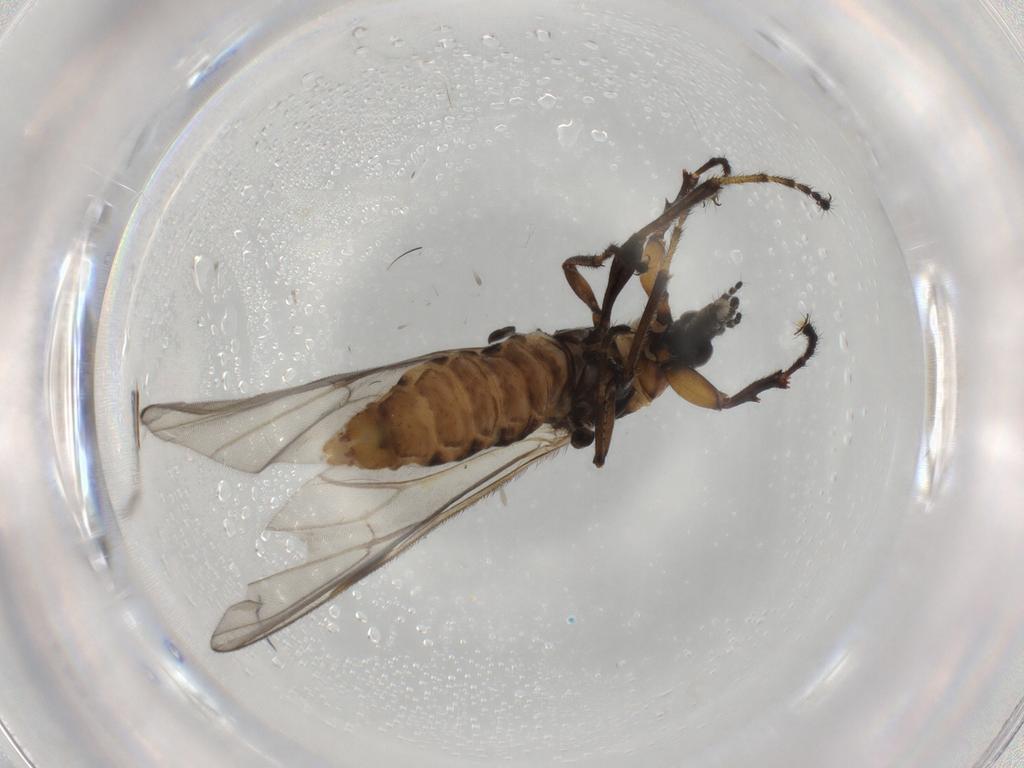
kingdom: Animalia
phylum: Arthropoda
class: Insecta
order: Diptera
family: Bibionidae
